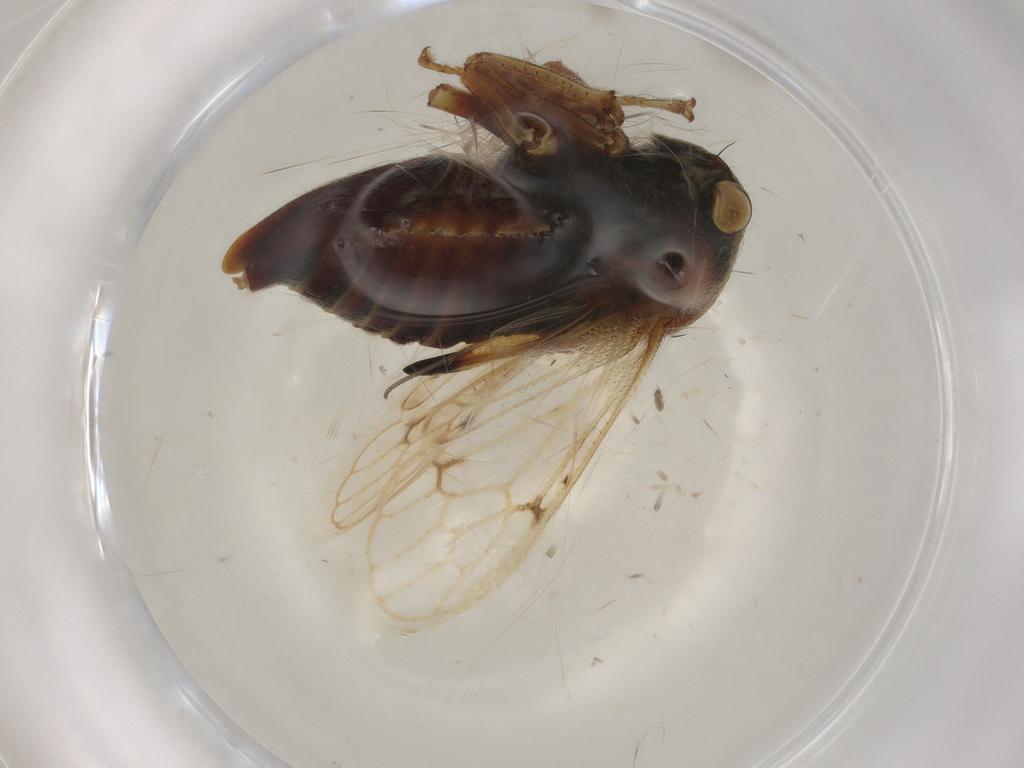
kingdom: Animalia
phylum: Arthropoda
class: Insecta
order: Hemiptera
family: Membracidae
